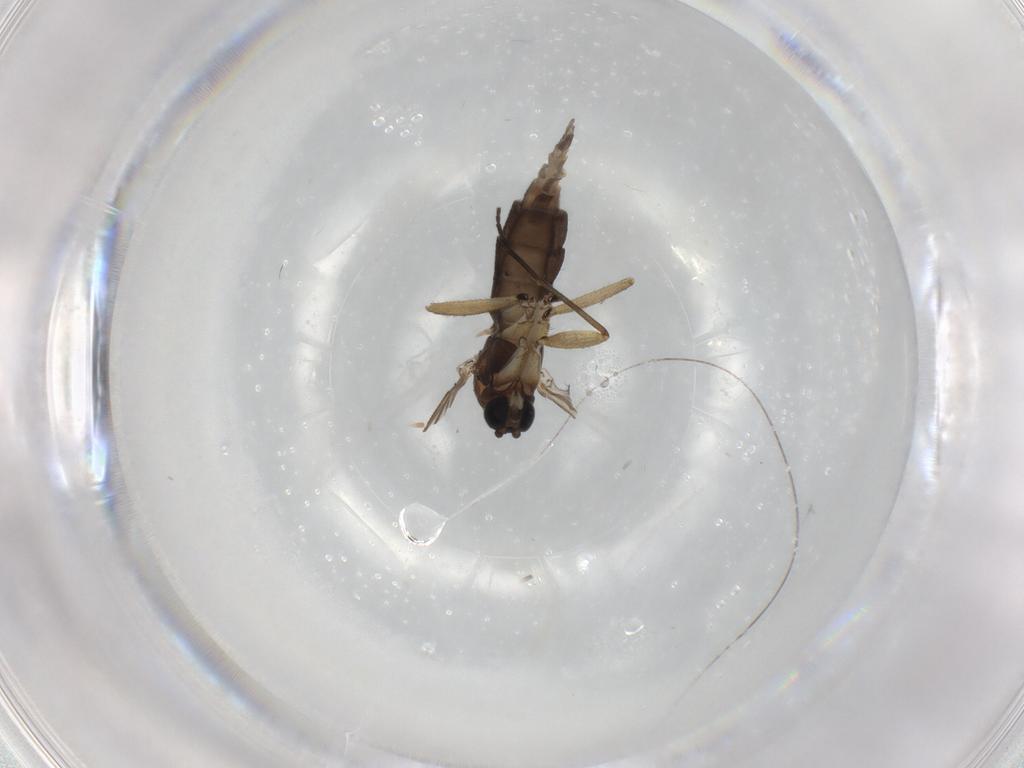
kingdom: Animalia
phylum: Arthropoda
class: Insecta
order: Diptera
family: Sciaridae
